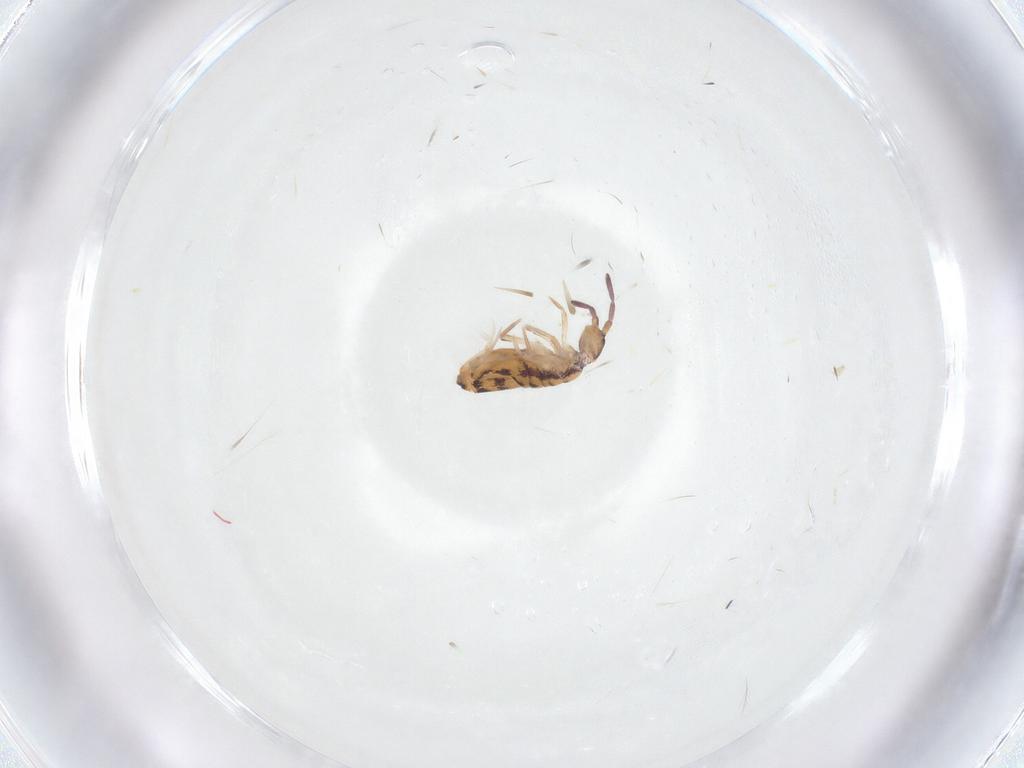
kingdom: Animalia
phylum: Arthropoda
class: Collembola
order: Entomobryomorpha
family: Entomobryidae
